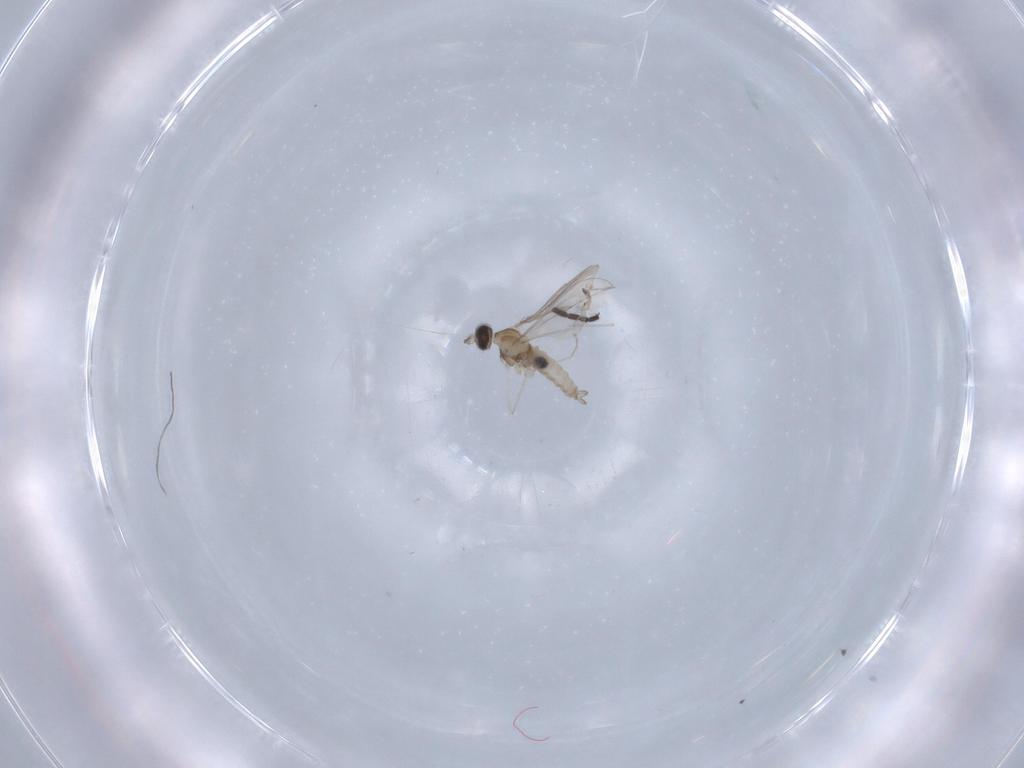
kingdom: Animalia
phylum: Arthropoda
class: Insecta
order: Diptera
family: Cecidomyiidae
